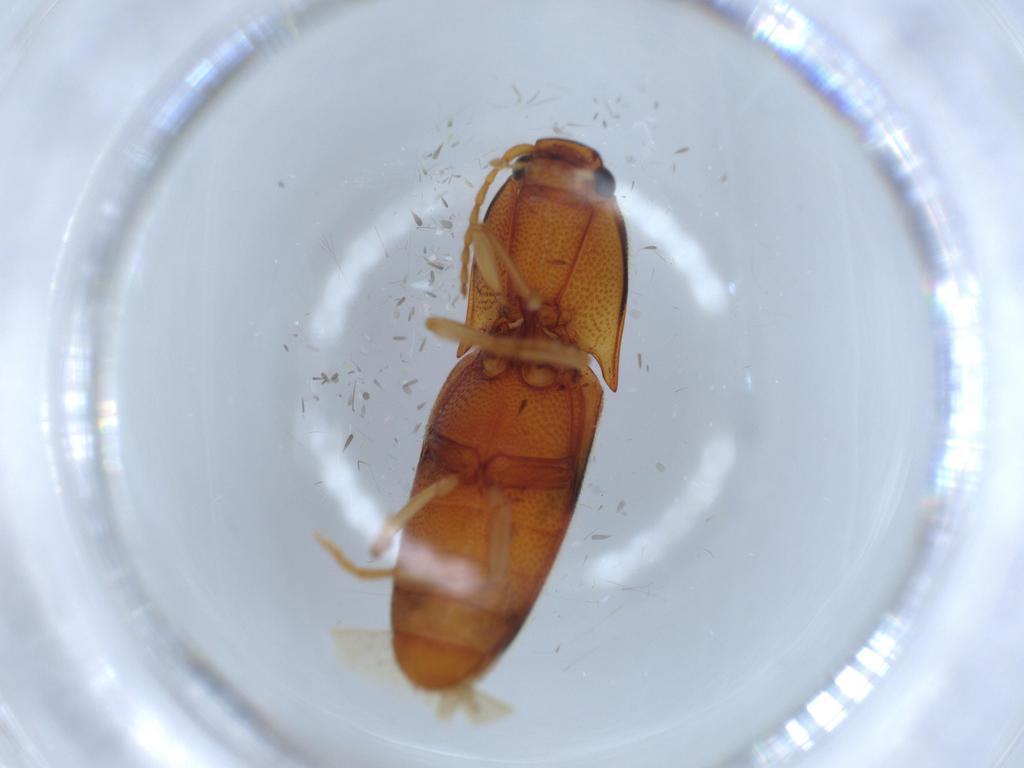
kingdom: Animalia
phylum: Arthropoda
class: Insecta
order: Coleoptera
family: Elateridae
